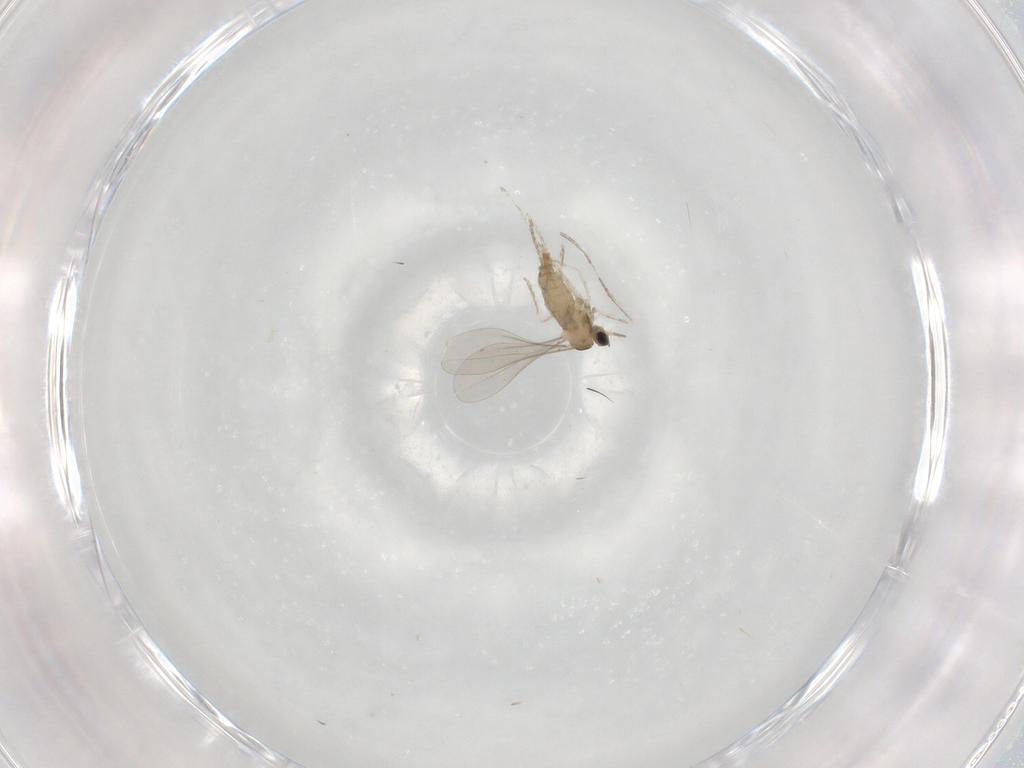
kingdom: Animalia
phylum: Arthropoda
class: Insecta
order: Diptera
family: Cecidomyiidae
